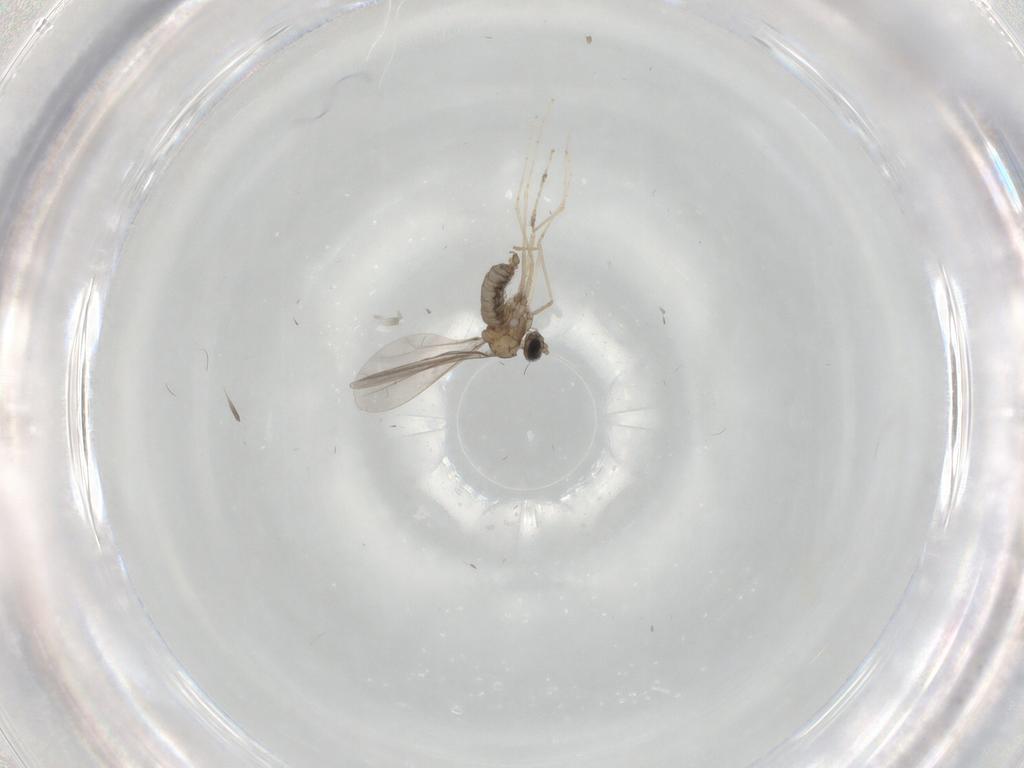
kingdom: Animalia
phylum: Arthropoda
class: Insecta
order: Diptera
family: Cecidomyiidae
